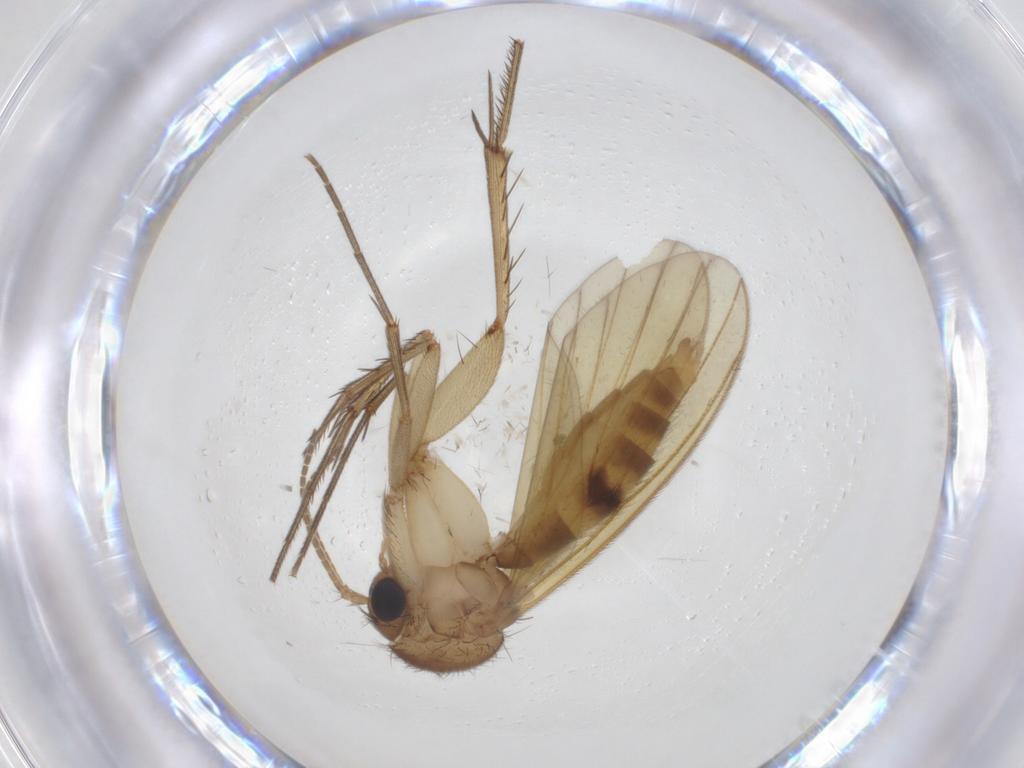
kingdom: Animalia
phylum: Arthropoda
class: Insecta
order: Diptera
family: Mycetophilidae
